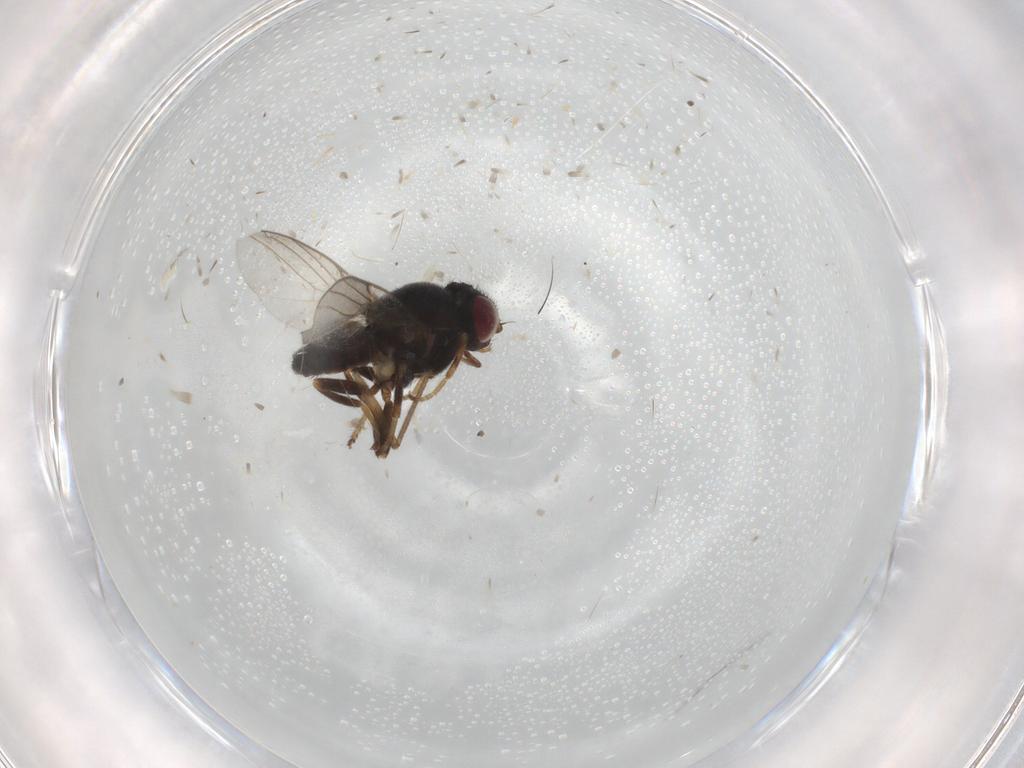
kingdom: Animalia
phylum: Arthropoda
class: Insecta
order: Diptera
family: Chloropidae
